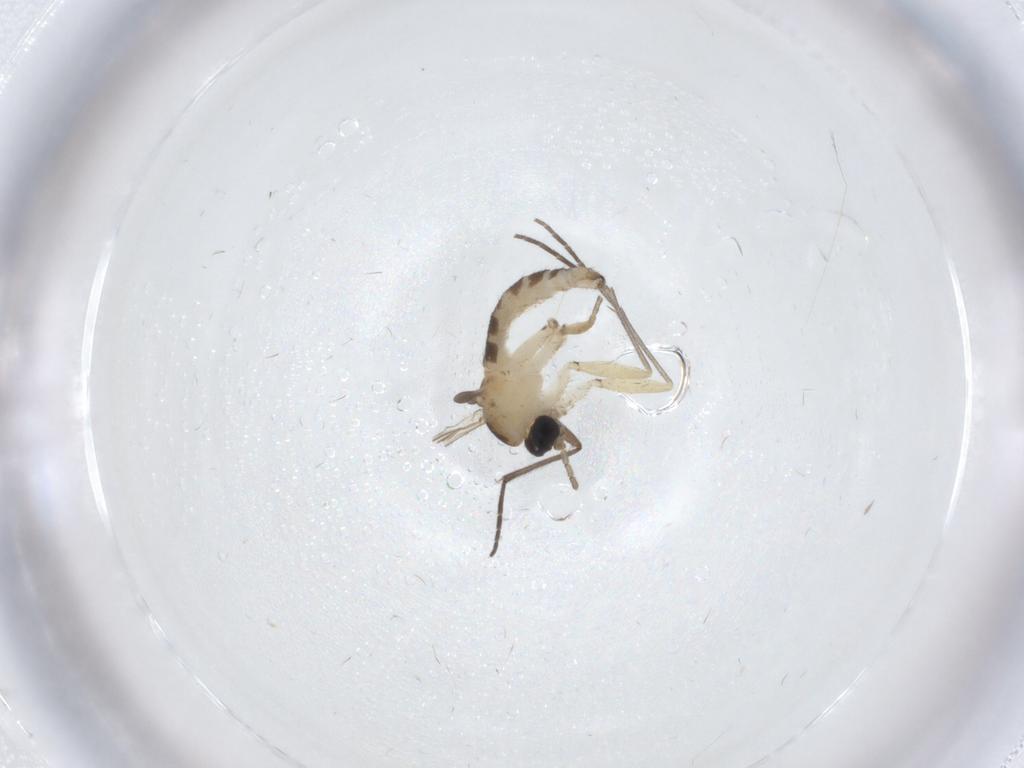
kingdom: Animalia
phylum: Arthropoda
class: Insecta
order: Diptera
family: Sciaridae
